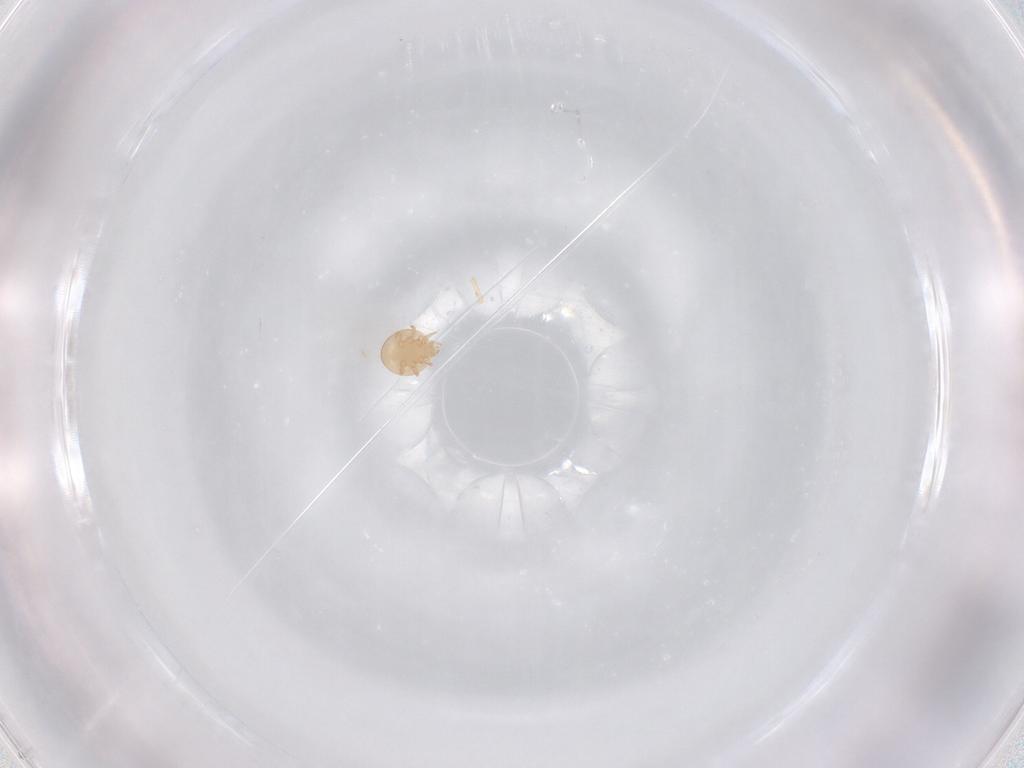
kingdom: Animalia
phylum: Arthropoda
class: Arachnida
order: Mesostigmata
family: Trematuridae
